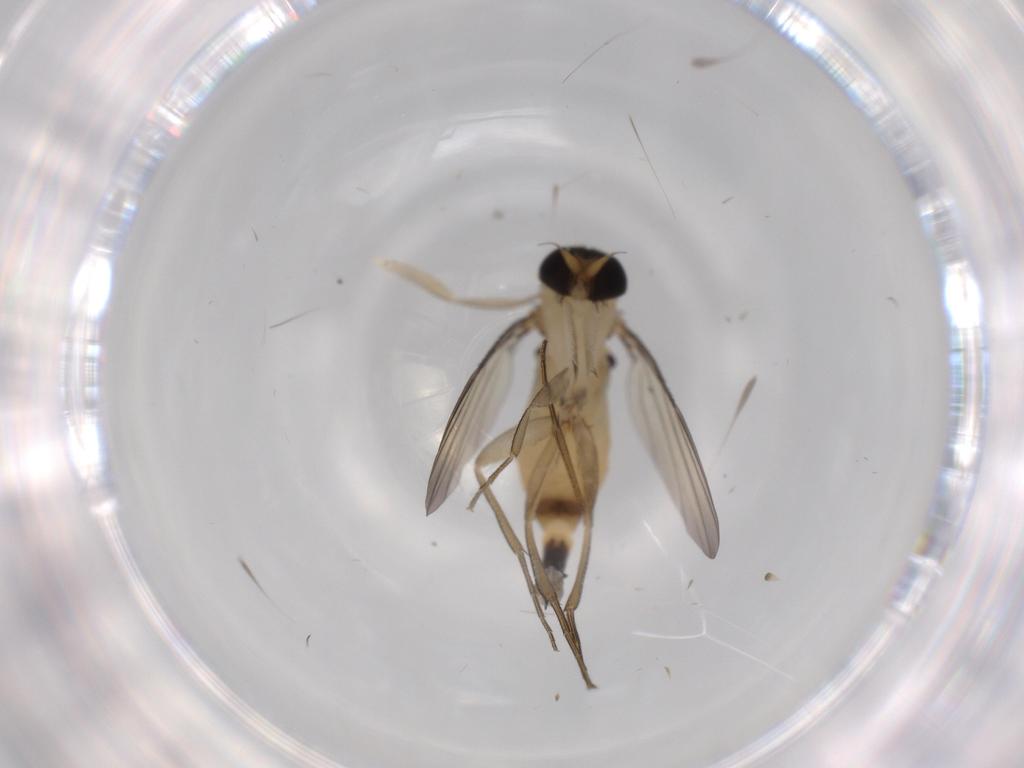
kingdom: Animalia
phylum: Arthropoda
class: Insecta
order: Diptera
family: Phoridae
